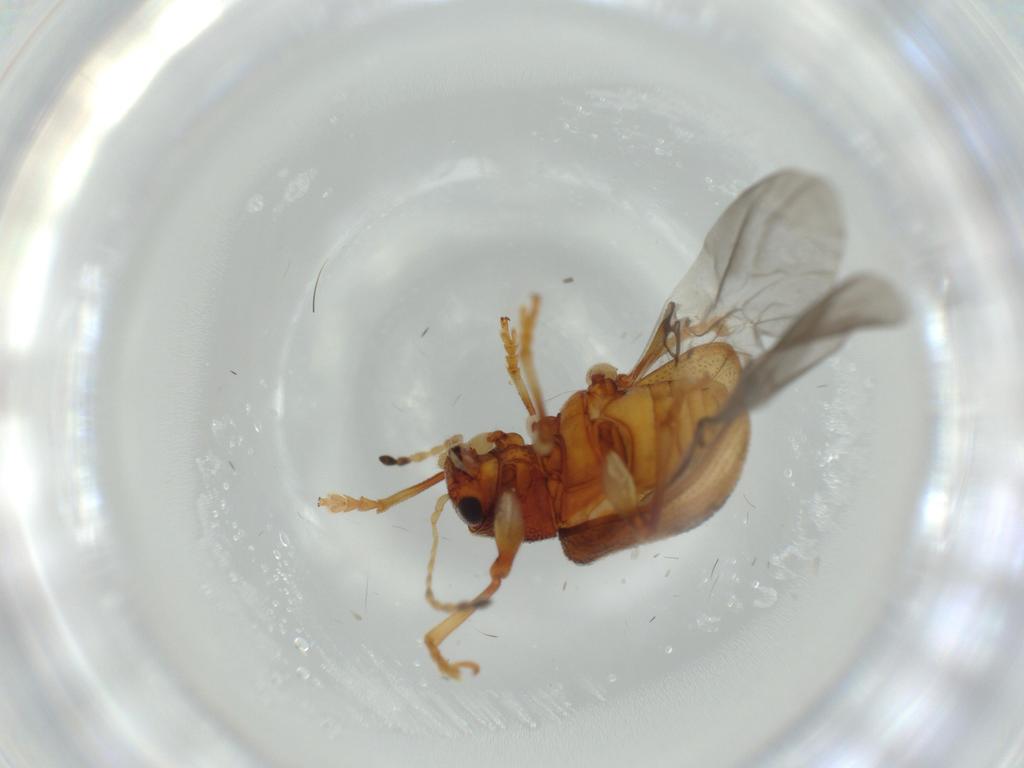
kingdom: Animalia
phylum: Arthropoda
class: Insecta
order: Coleoptera
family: Chrysomelidae
